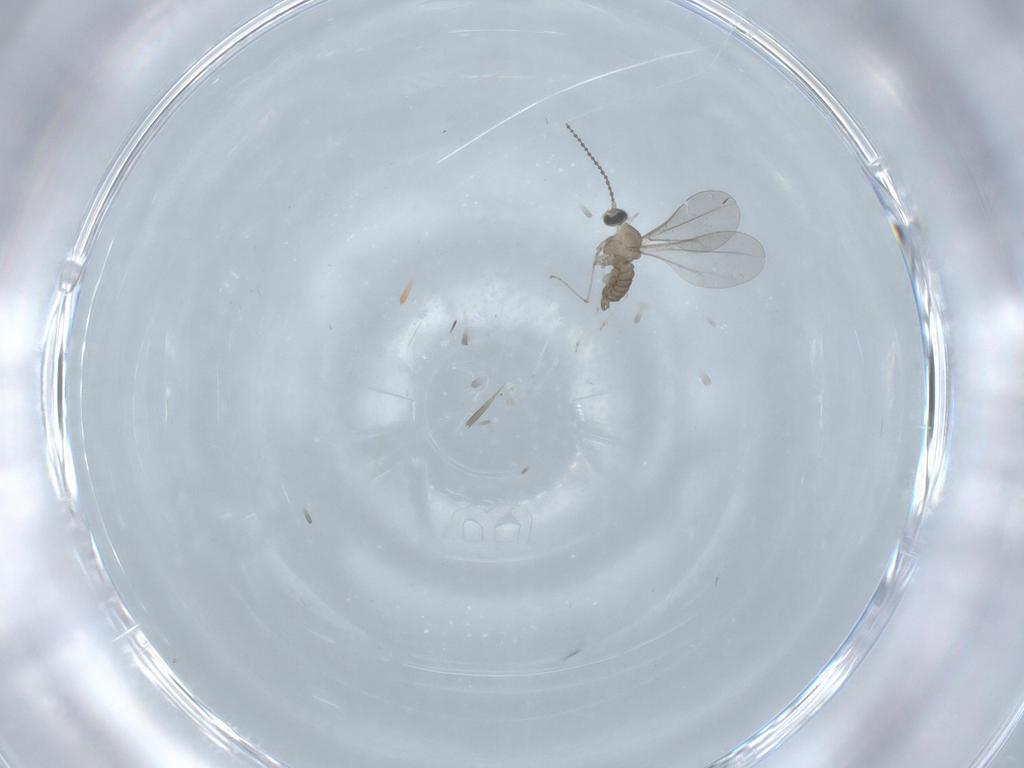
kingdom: Animalia
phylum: Arthropoda
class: Insecta
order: Diptera
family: Cecidomyiidae
